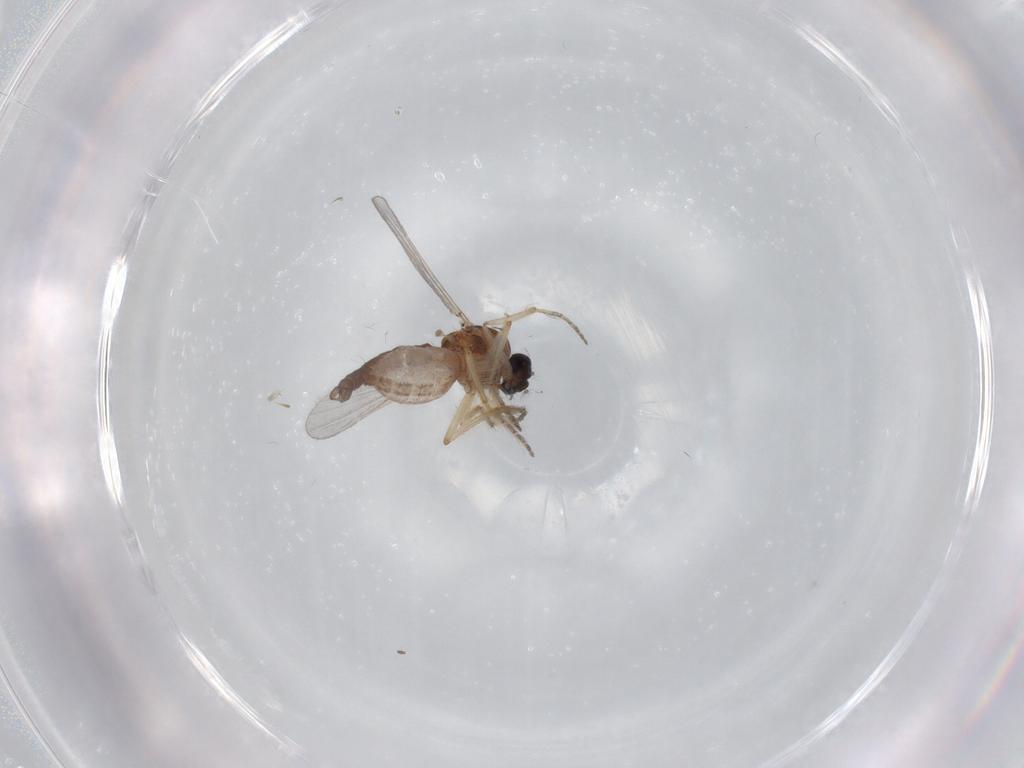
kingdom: Animalia
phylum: Arthropoda
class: Insecta
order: Diptera
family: Ceratopogonidae
